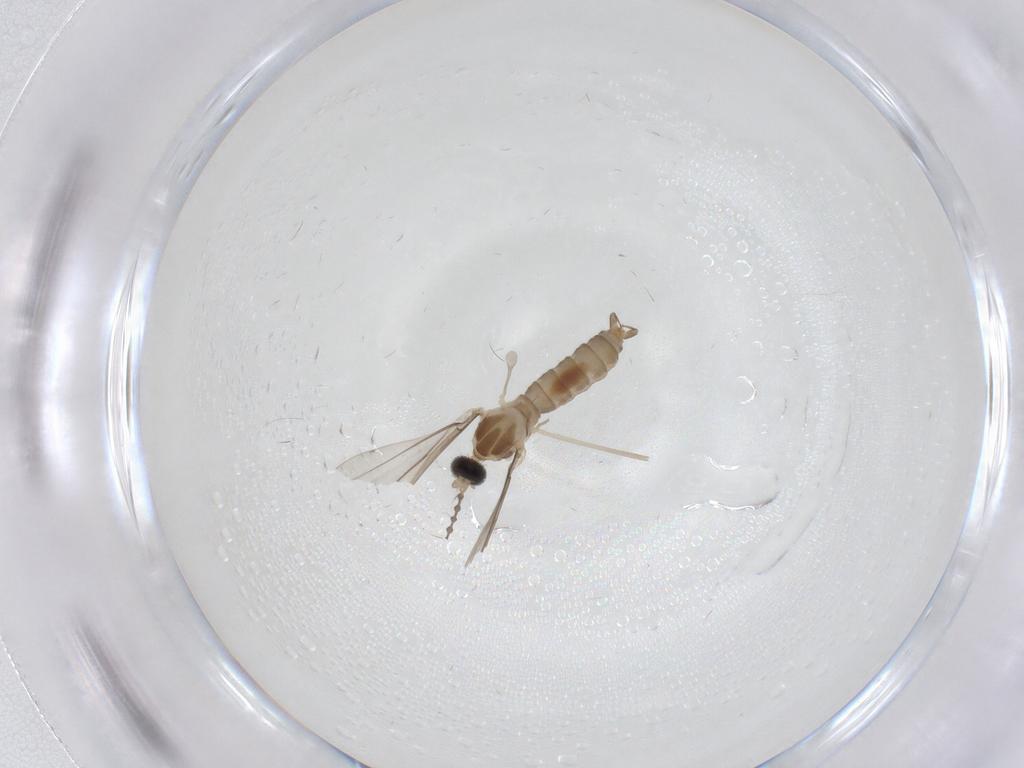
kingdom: Animalia
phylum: Arthropoda
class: Insecta
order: Diptera
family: Cecidomyiidae
